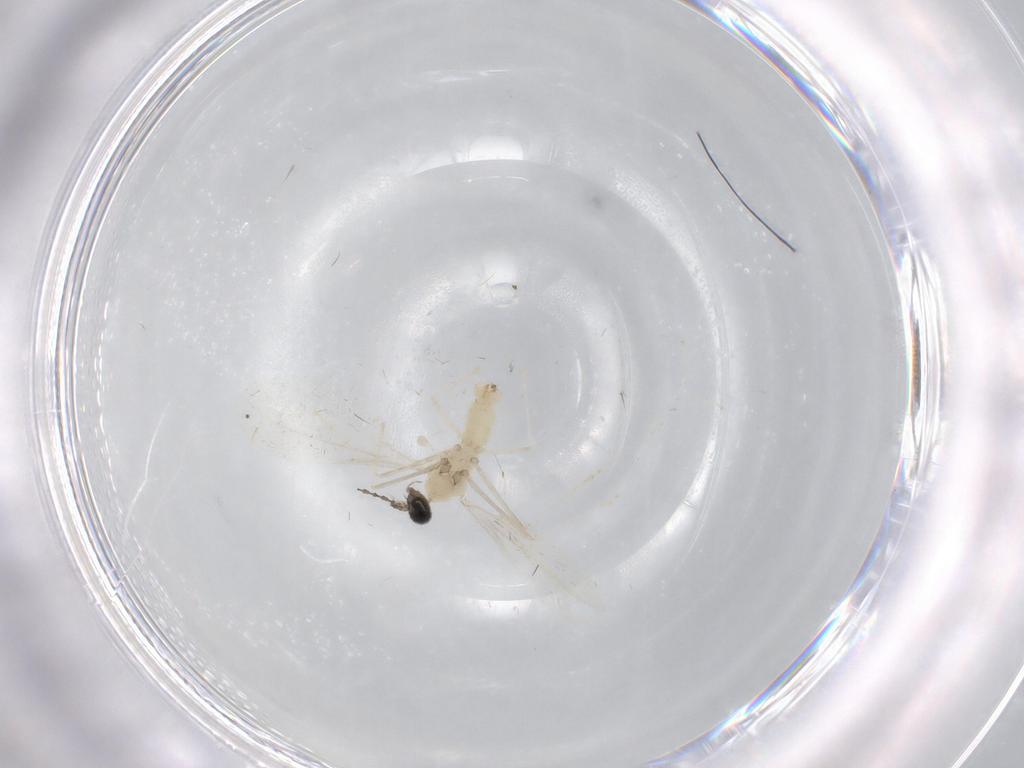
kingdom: Animalia
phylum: Arthropoda
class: Insecta
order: Diptera
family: Cecidomyiidae
